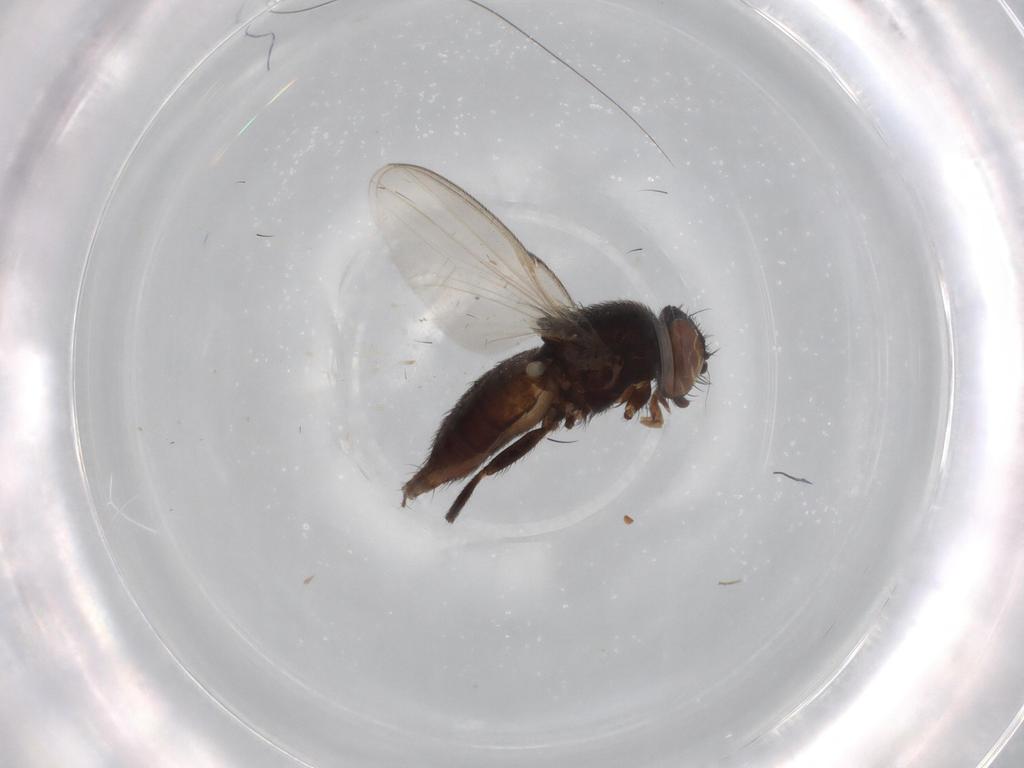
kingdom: Animalia
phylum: Arthropoda
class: Insecta
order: Diptera
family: Milichiidae
